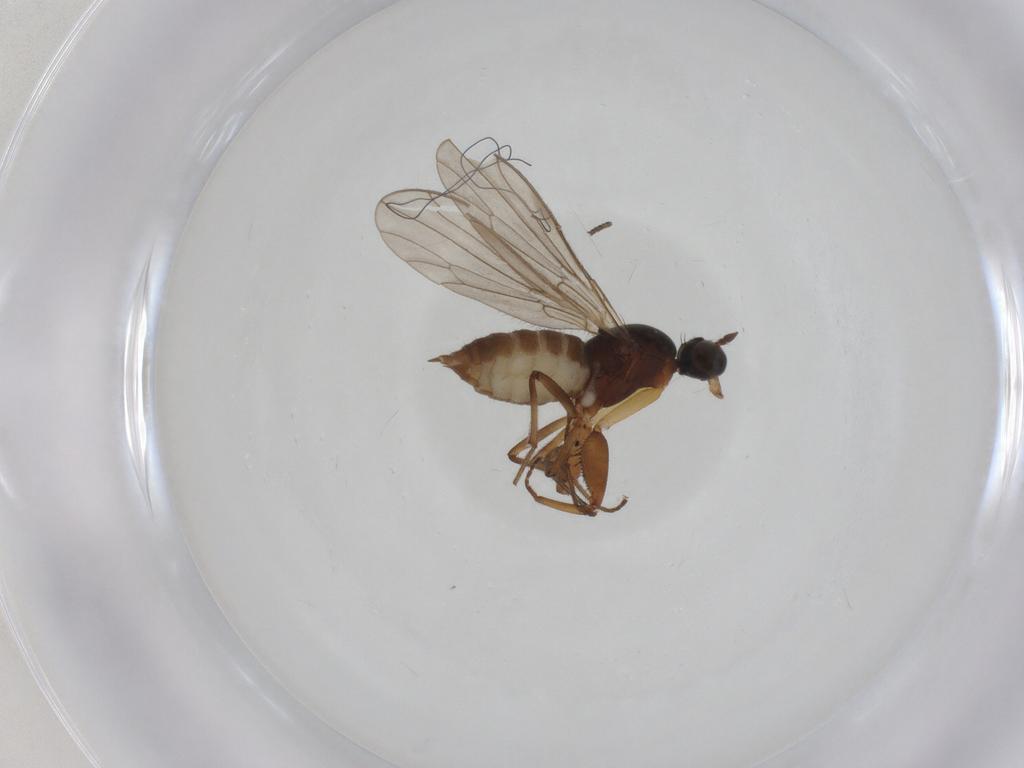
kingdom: Animalia
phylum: Arthropoda
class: Insecta
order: Diptera
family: Empididae
